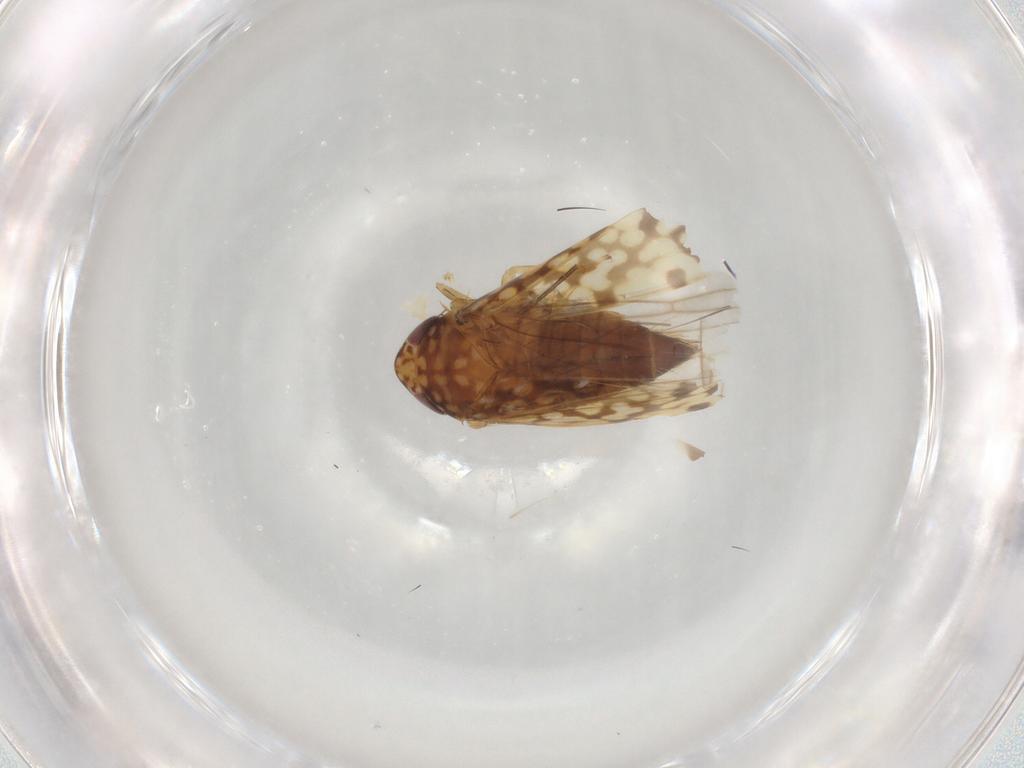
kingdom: Animalia
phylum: Arthropoda
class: Insecta
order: Hemiptera
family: Cicadellidae
